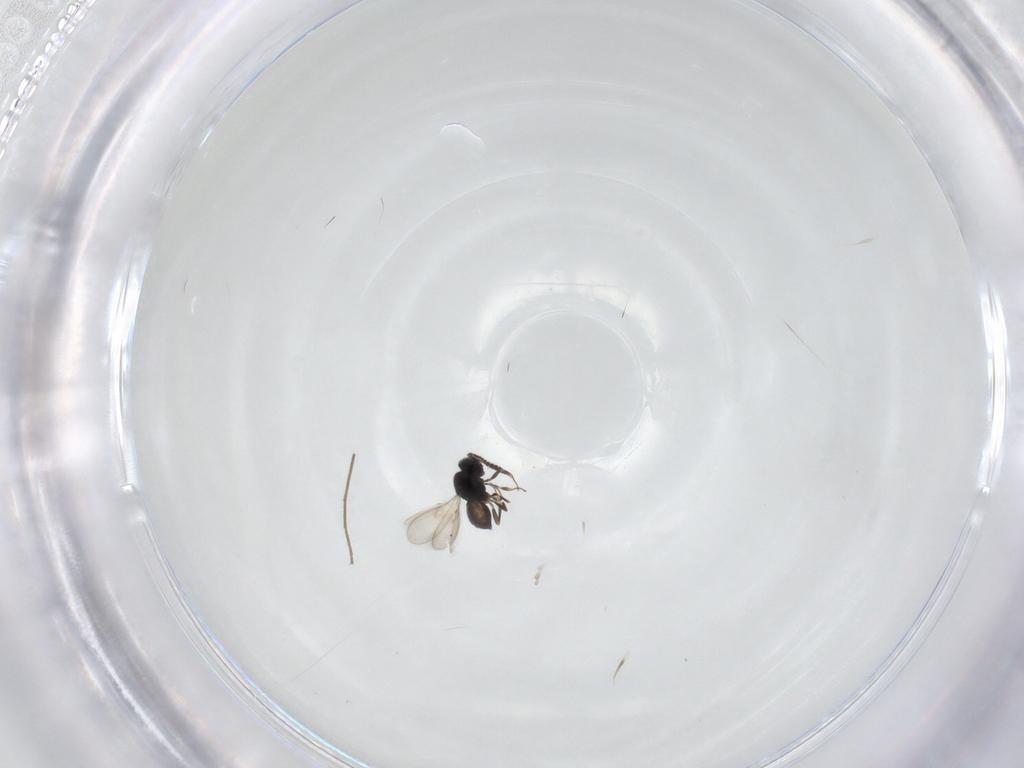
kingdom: Animalia
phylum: Arthropoda
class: Insecta
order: Hymenoptera
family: Scelionidae
